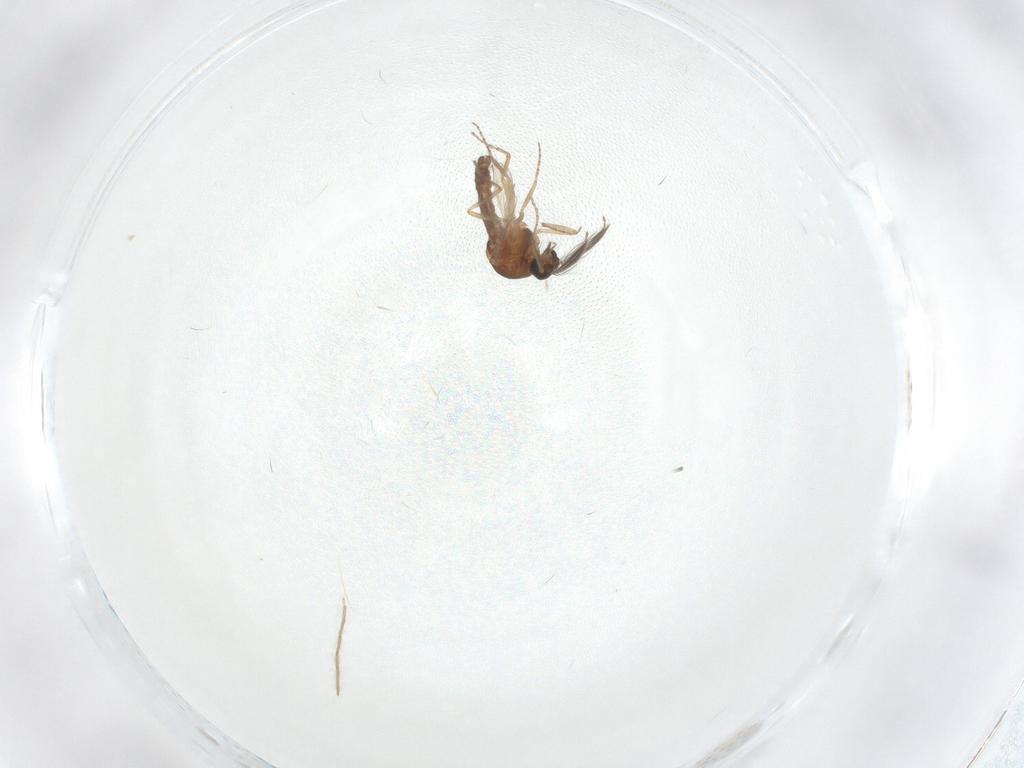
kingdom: Animalia
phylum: Arthropoda
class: Insecta
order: Diptera
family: Ceratopogonidae
